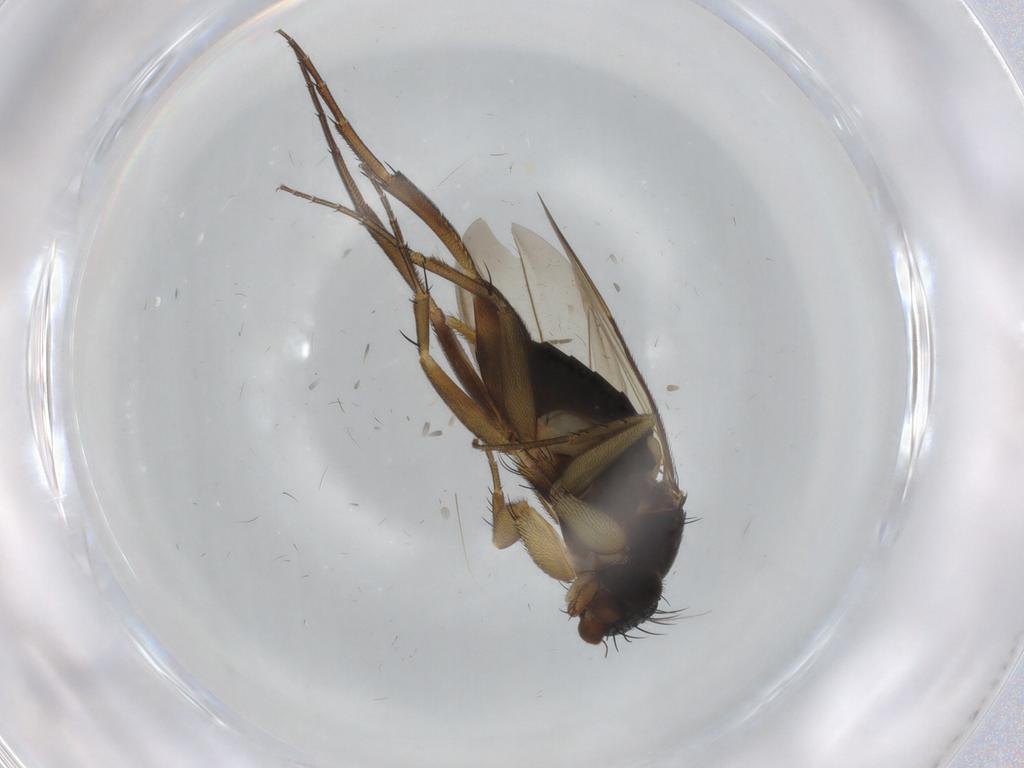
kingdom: Animalia
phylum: Arthropoda
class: Insecta
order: Diptera
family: Phoridae
